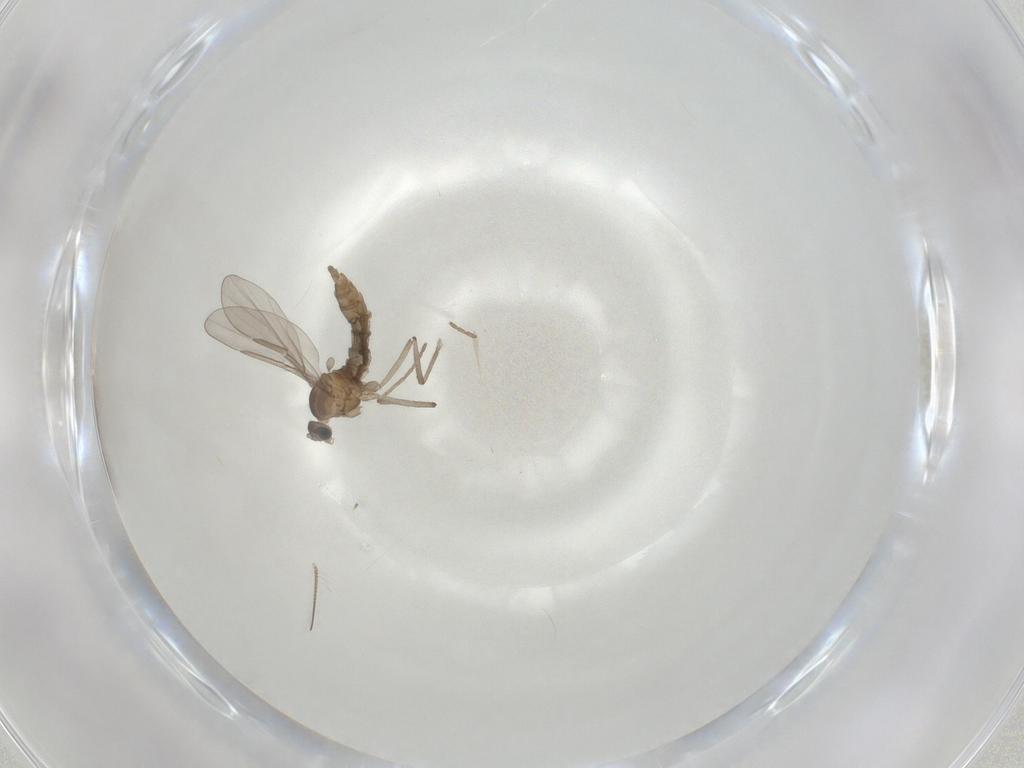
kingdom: Animalia
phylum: Arthropoda
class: Insecta
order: Diptera
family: Cecidomyiidae
